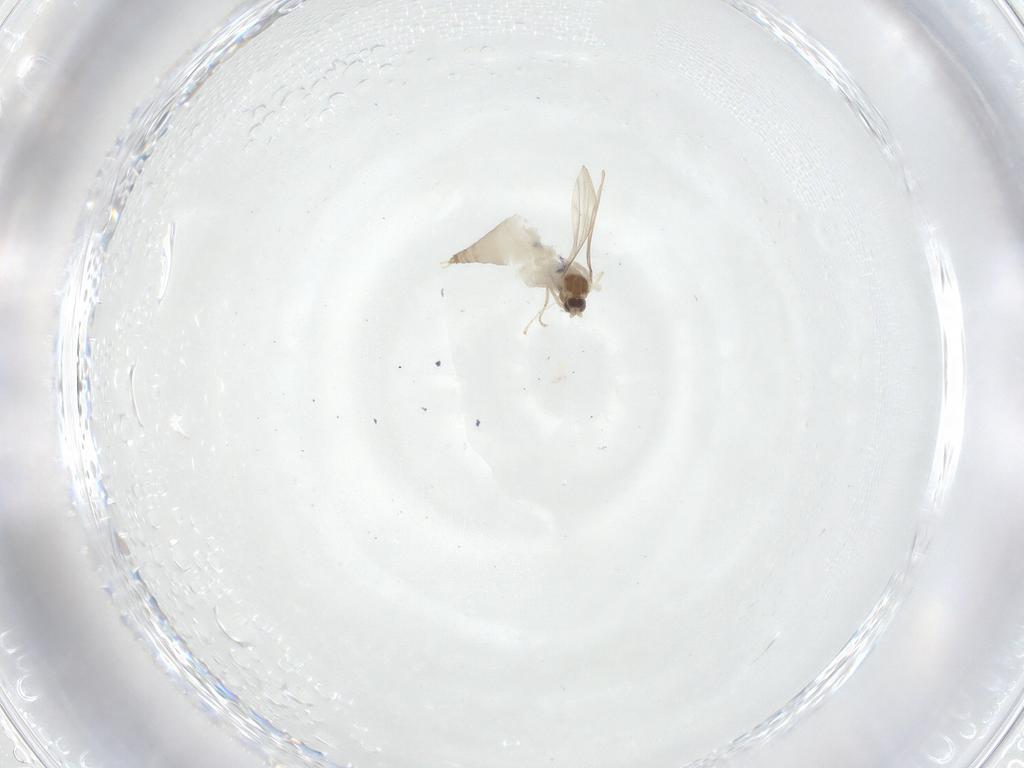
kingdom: Animalia
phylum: Arthropoda
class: Insecta
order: Diptera
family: Cecidomyiidae
